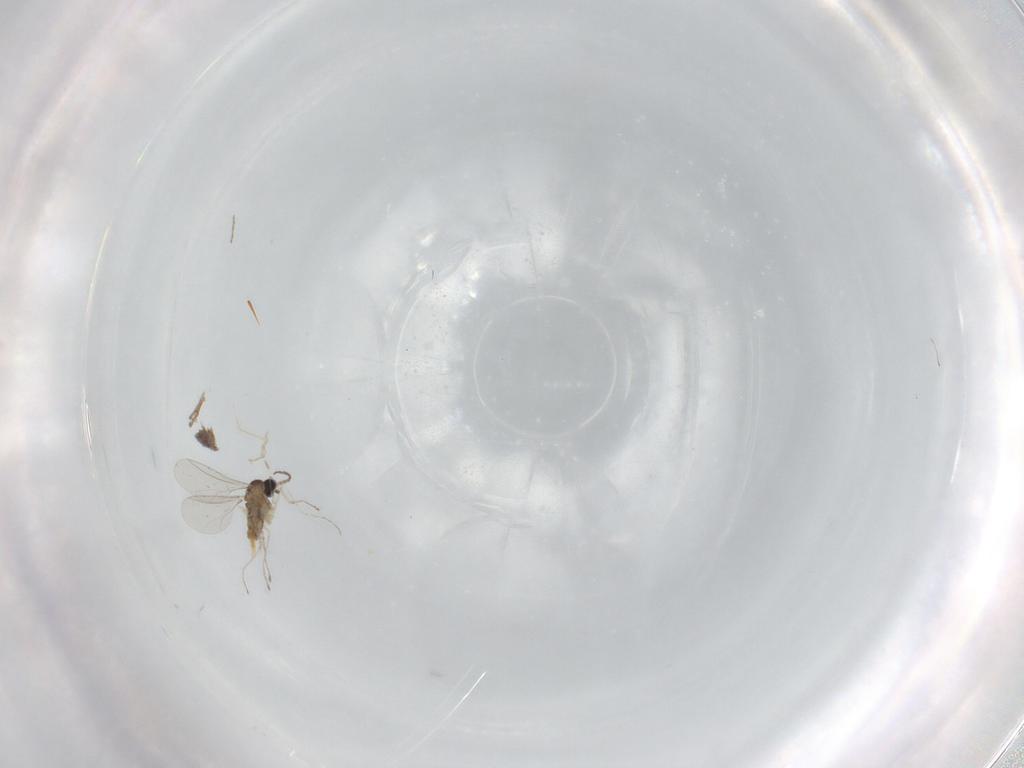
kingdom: Animalia
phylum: Arthropoda
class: Insecta
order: Diptera
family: Cecidomyiidae
